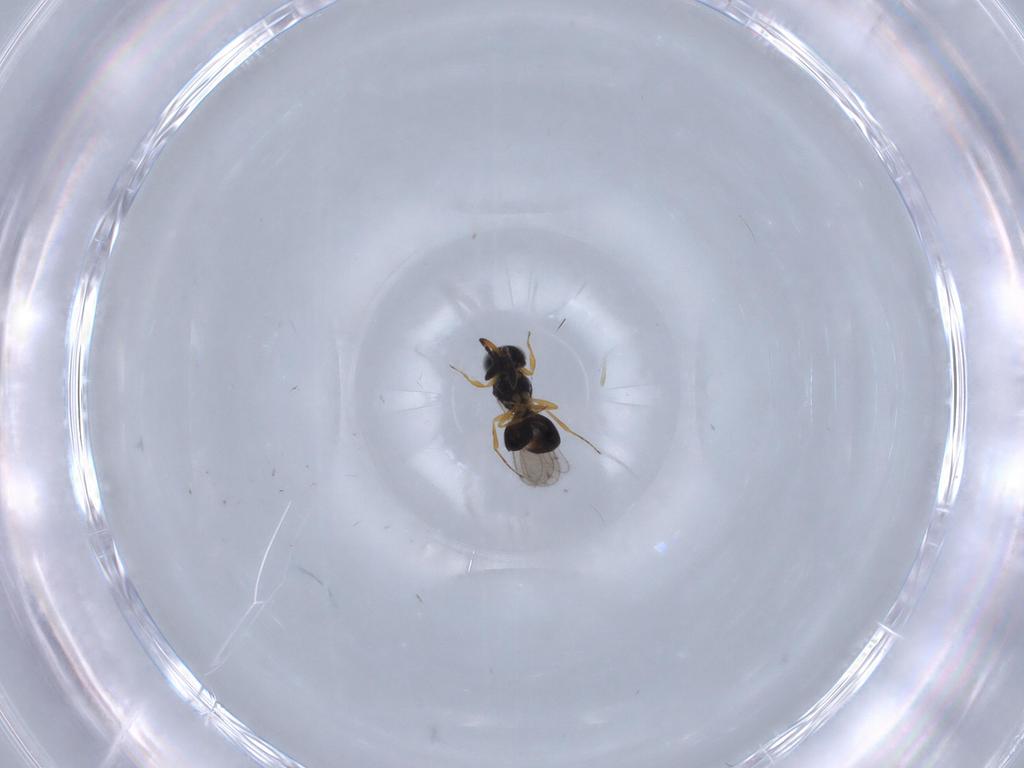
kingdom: Animalia
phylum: Arthropoda
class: Insecta
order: Hymenoptera
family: Scelionidae
